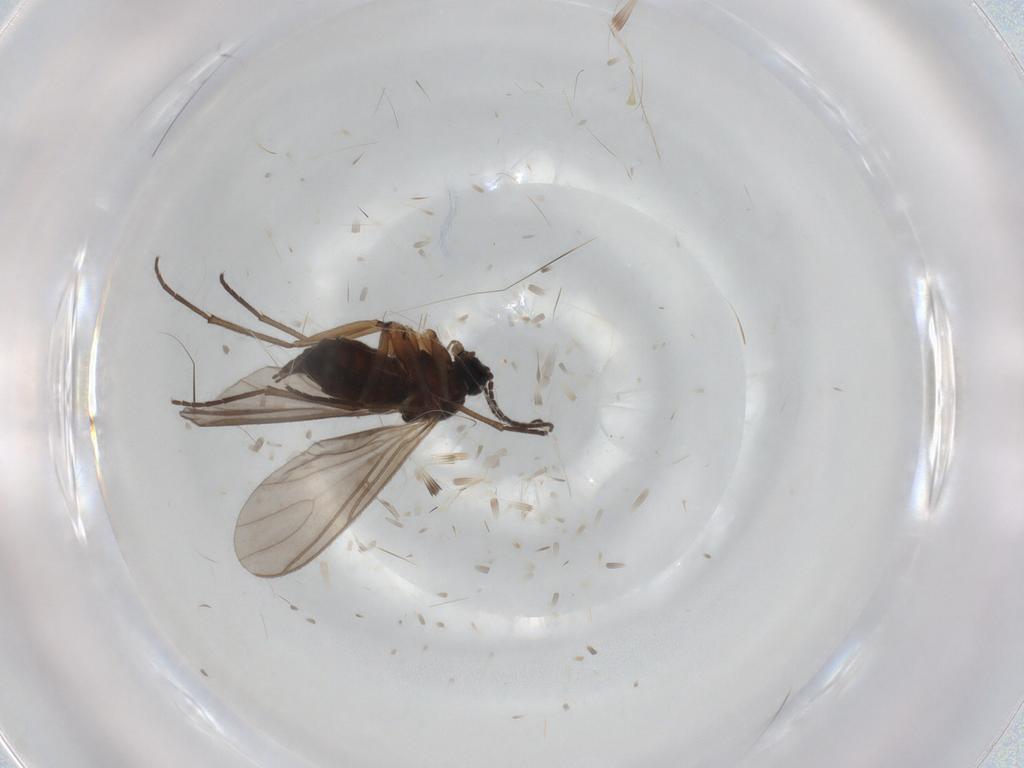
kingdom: Animalia
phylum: Arthropoda
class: Insecta
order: Diptera
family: Sciaridae
